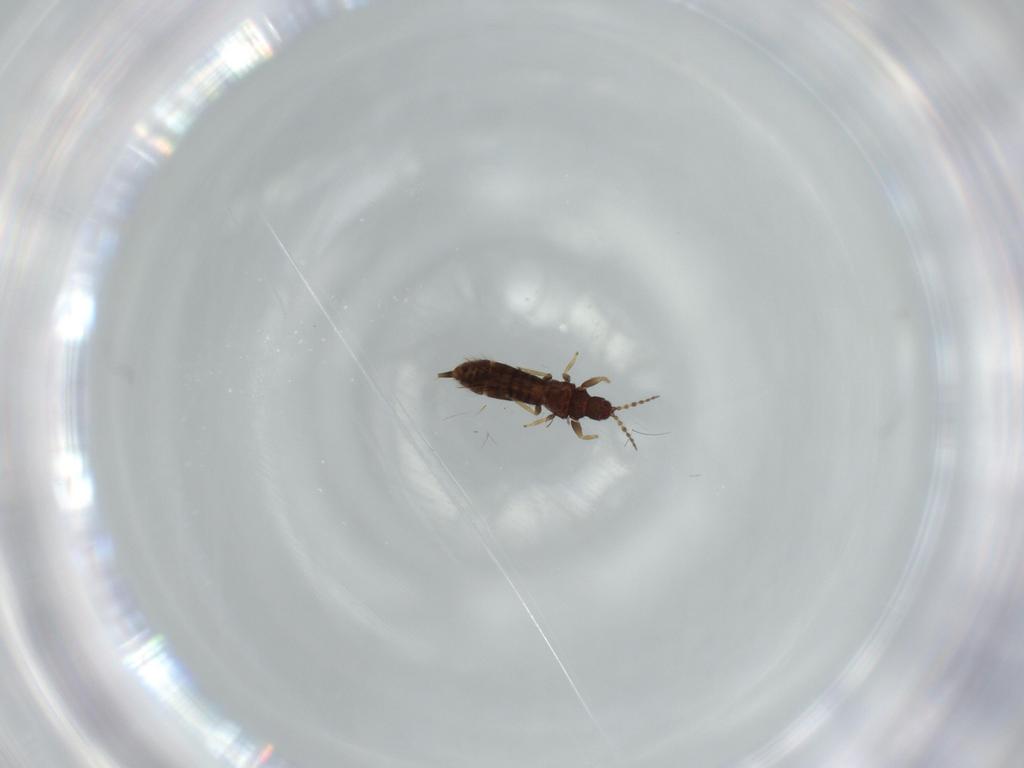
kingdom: Animalia
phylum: Arthropoda
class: Insecta
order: Thysanoptera
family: Phlaeothripidae
